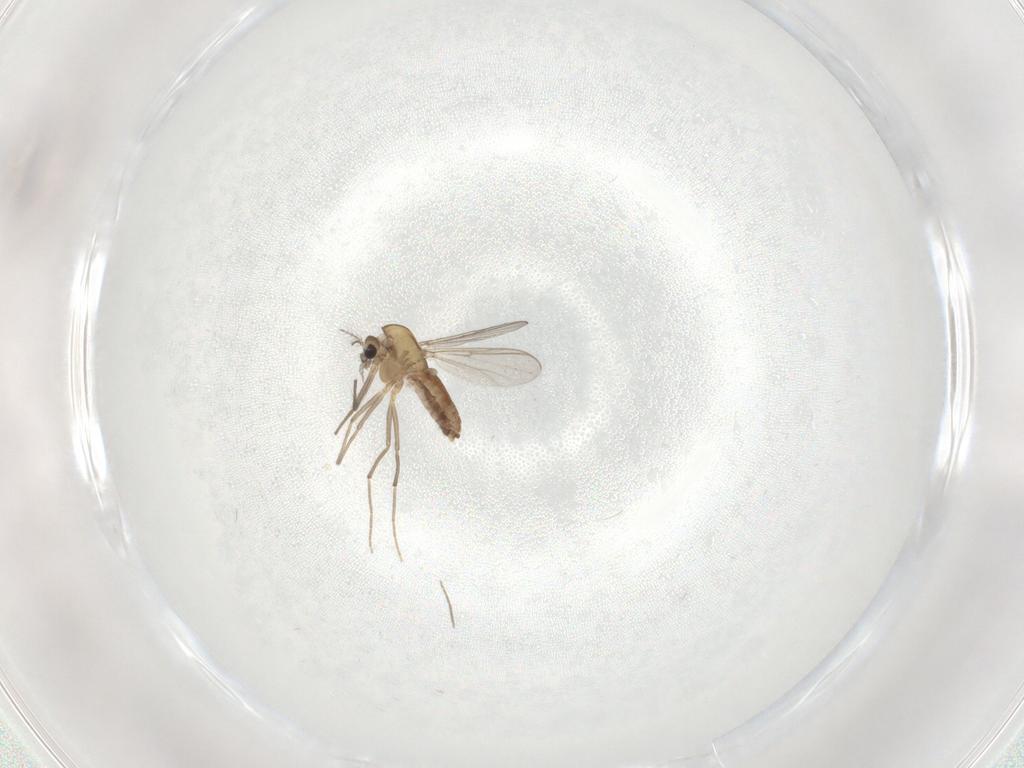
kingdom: Animalia
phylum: Arthropoda
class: Insecta
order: Diptera
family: Chironomidae
